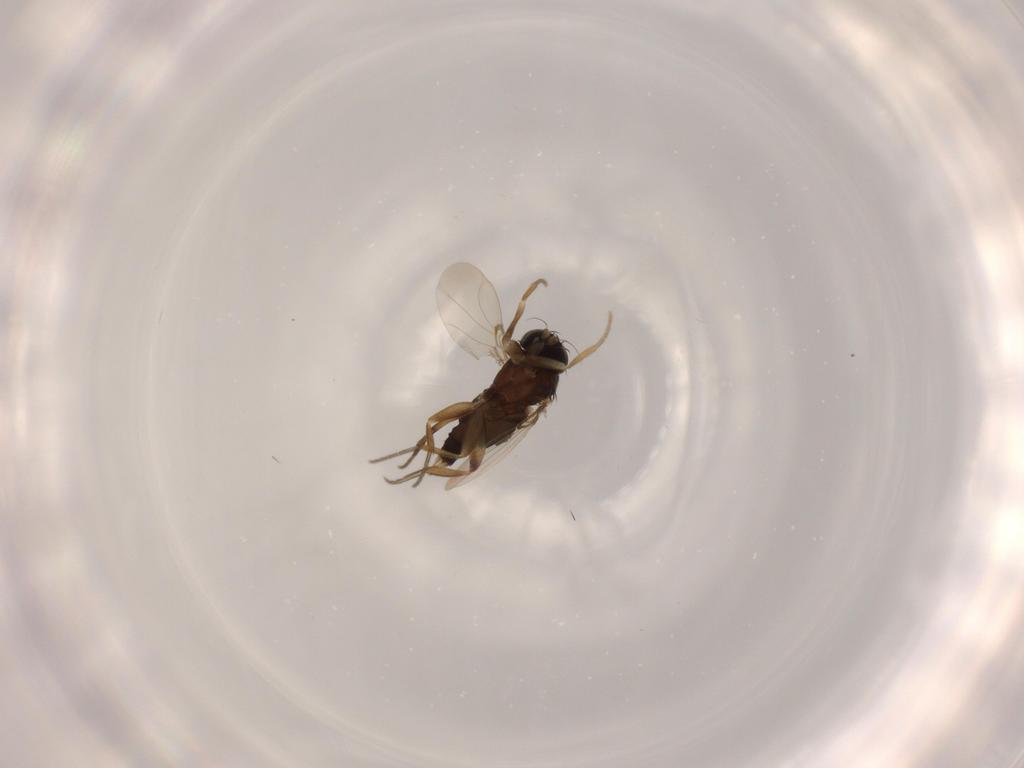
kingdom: Animalia
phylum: Arthropoda
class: Insecta
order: Diptera
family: Phoridae
